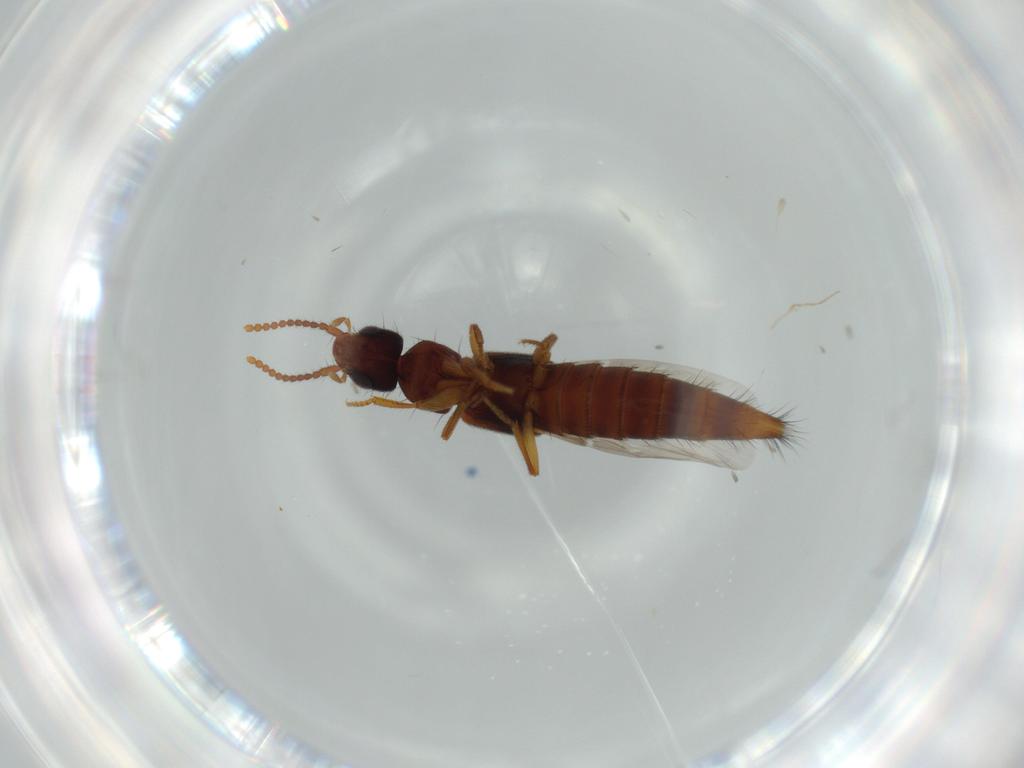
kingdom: Animalia
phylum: Arthropoda
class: Insecta
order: Coleoptera
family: Staphylinidae
